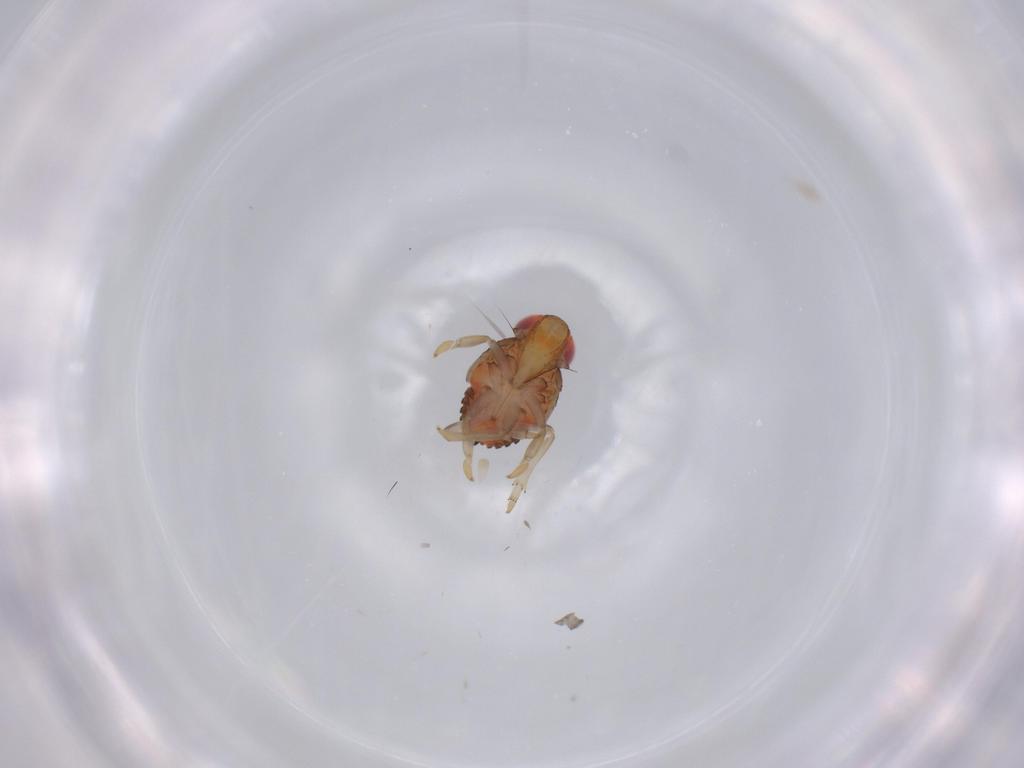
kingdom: Animalia
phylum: Arthropoda
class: Insecta
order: Hemiptera
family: Issidae
